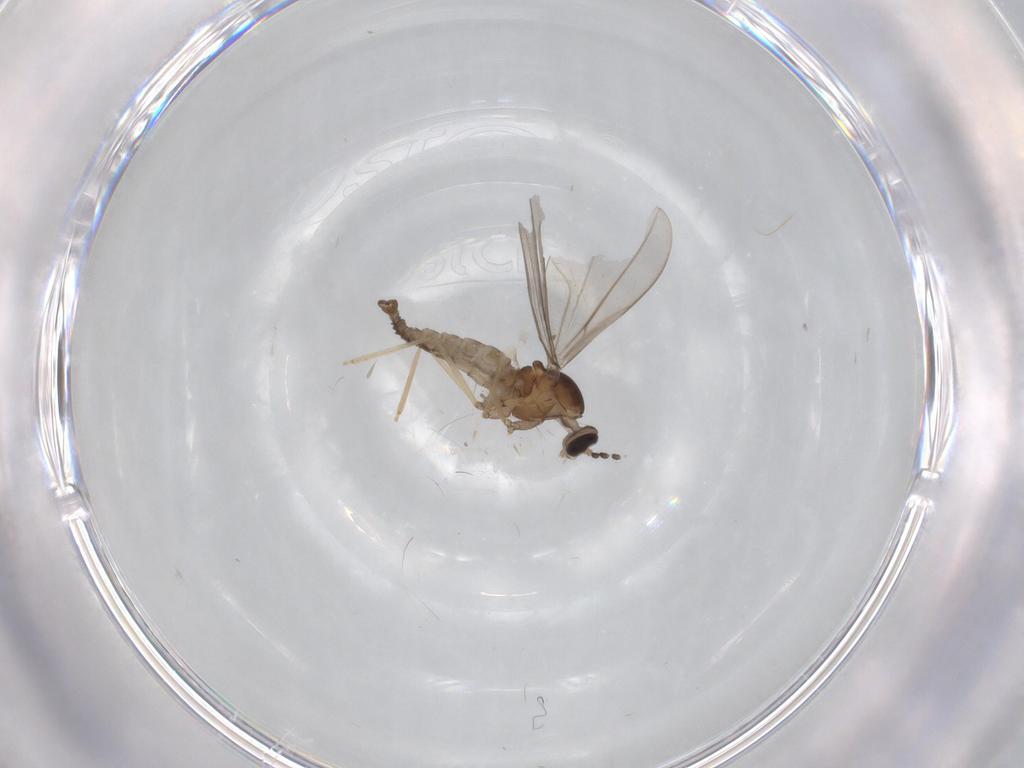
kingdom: Animalia
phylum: Arthropoda
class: Insecta
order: Diptera
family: Cecidomyiidae
